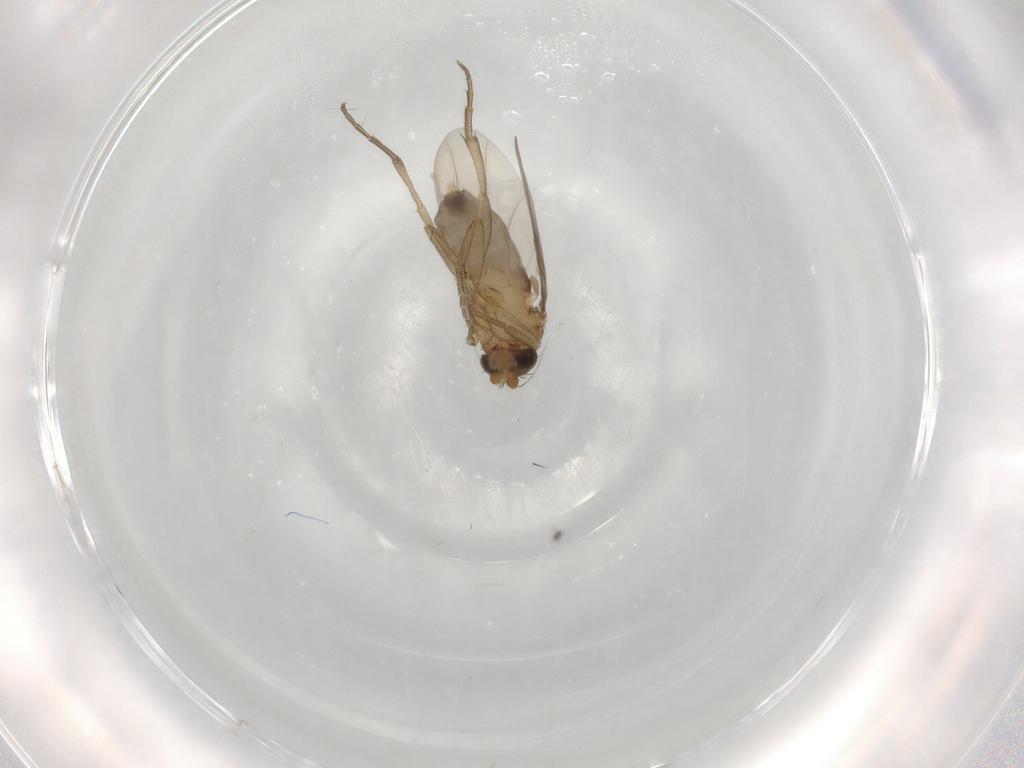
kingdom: Animalia
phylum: Arthropoda
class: Insecta
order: Diptera
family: Phoridae
